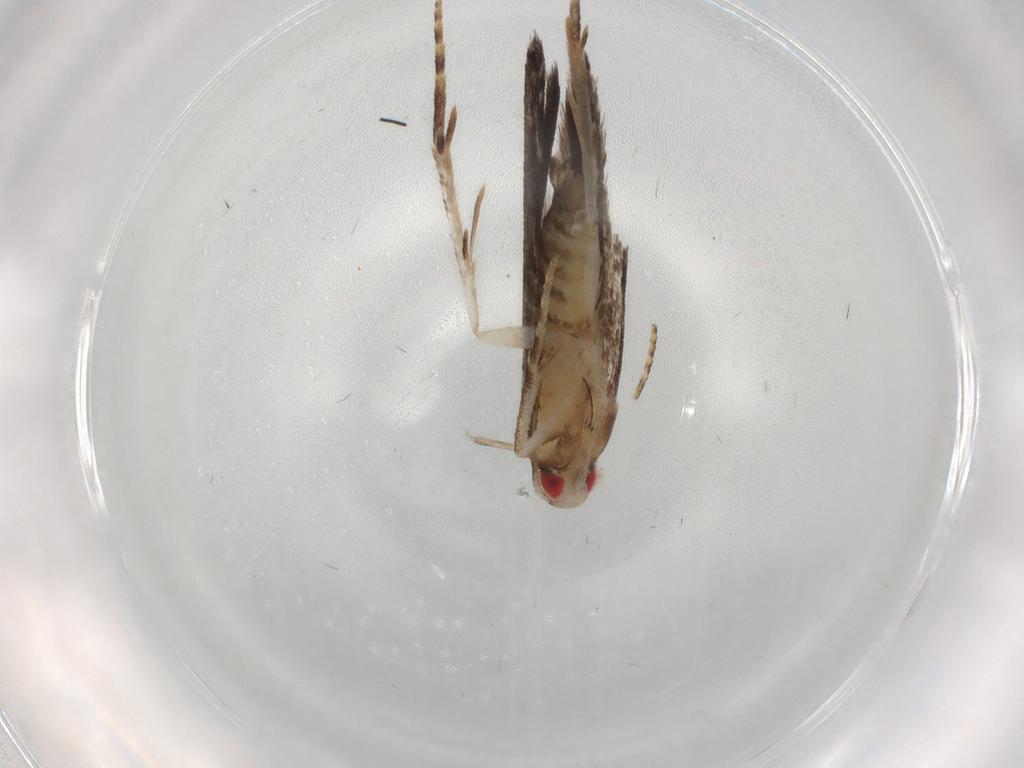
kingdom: Animalia
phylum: Arthropoda
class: Insecta
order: Lepidoptera
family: Gelechiidae
